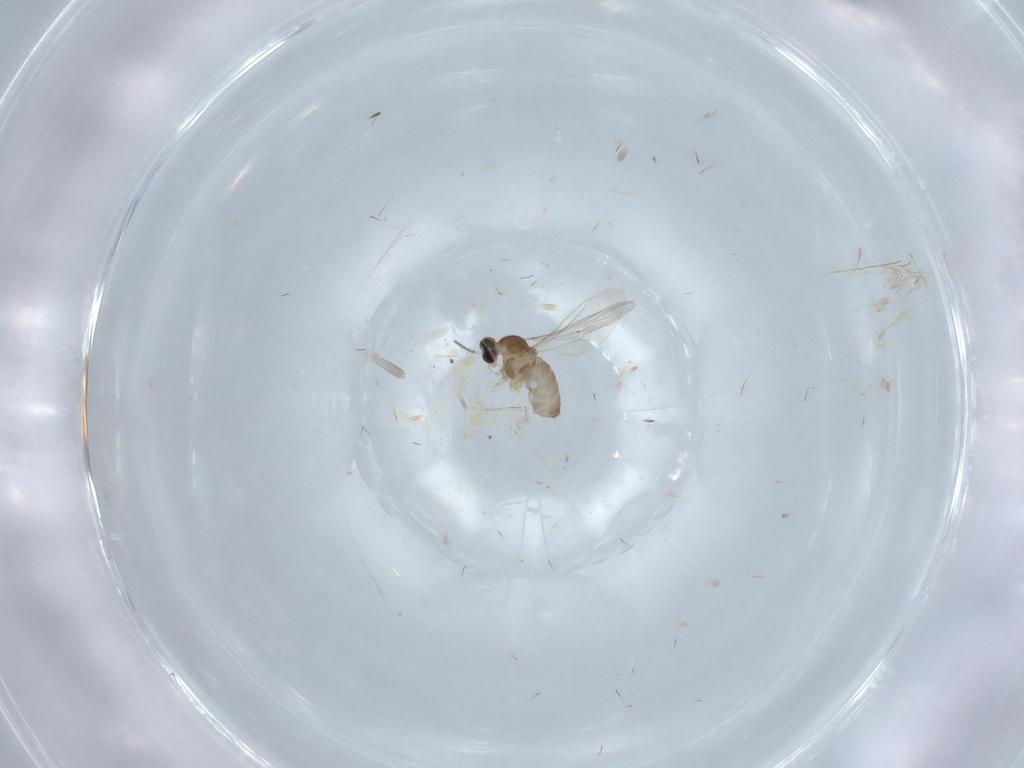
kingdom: Animalia
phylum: Arthropoda
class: Insecta
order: Diptera
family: Cecidomyiidae
